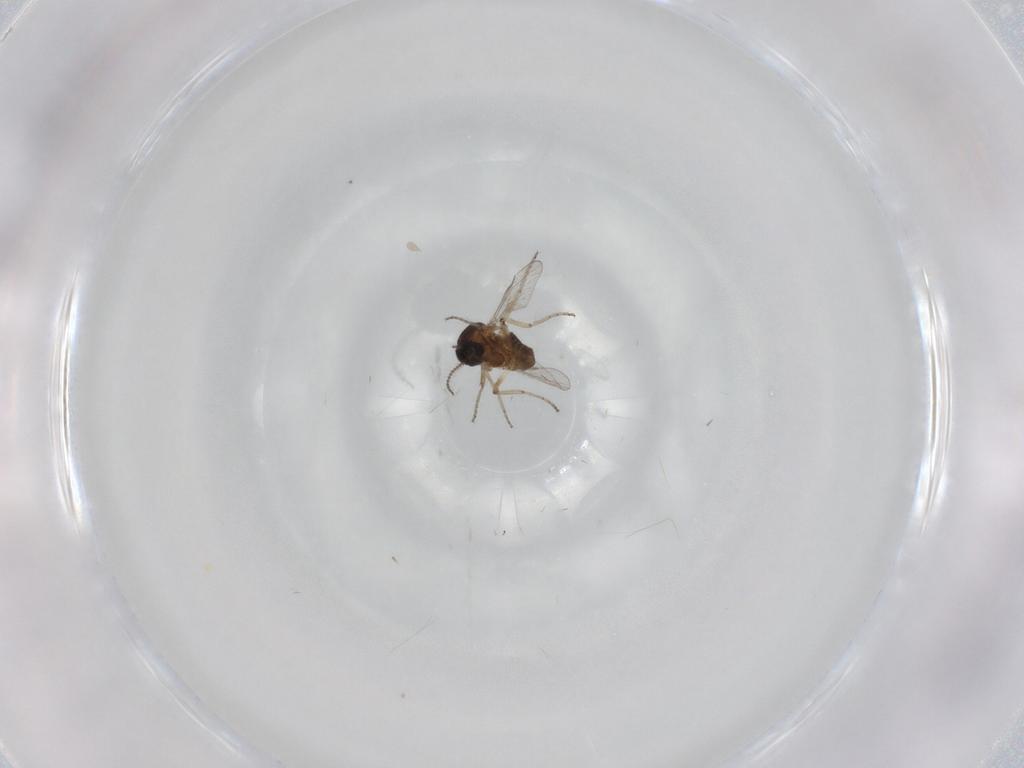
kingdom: Animalia
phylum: Arthropoda
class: Insecta
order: Diptera
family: Ceratopogonidae
